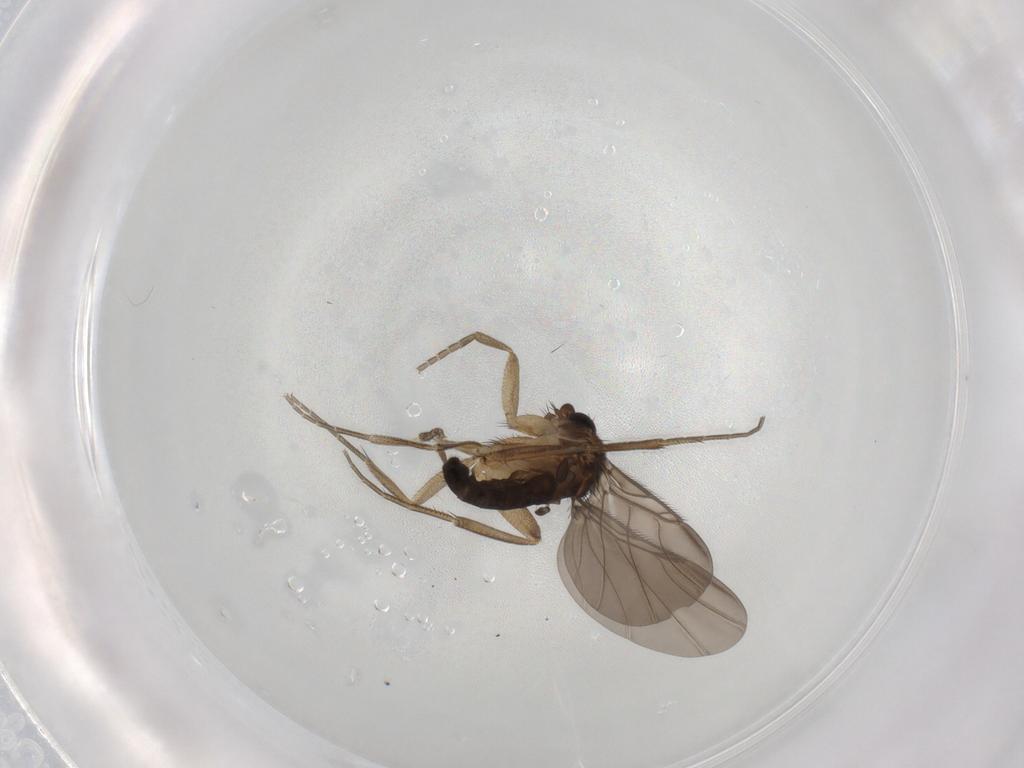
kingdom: Animalia
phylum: Arthropoda
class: Insecta
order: Diptera
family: Phoridae
